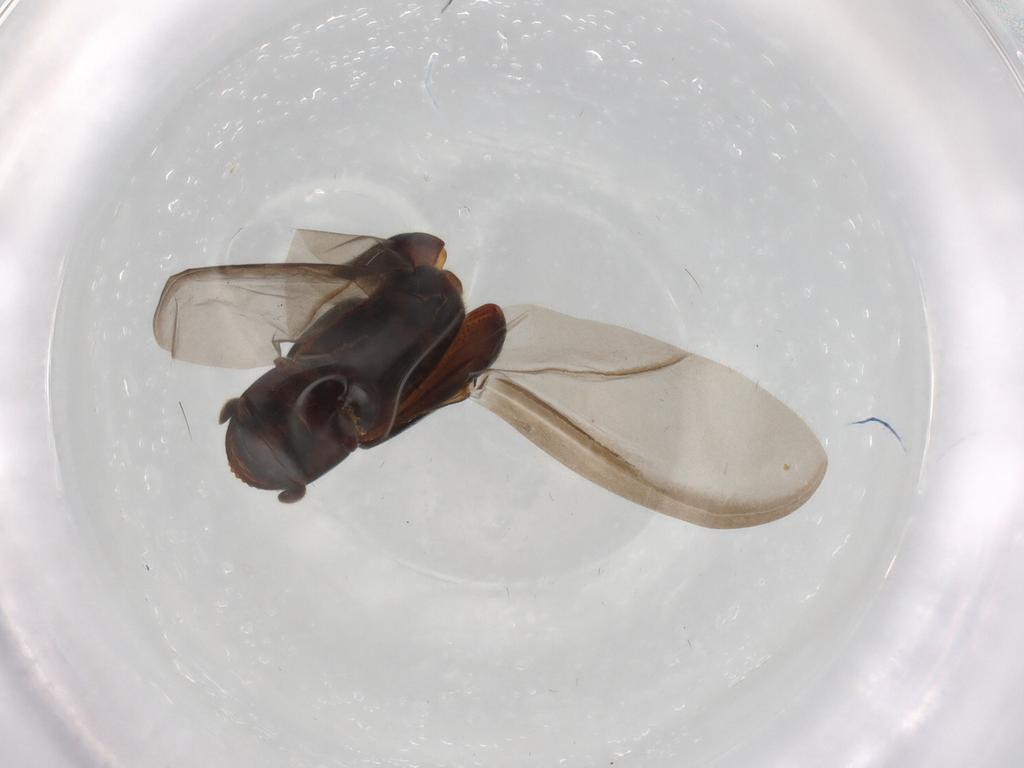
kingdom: Animalia
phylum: Arthropoda
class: Insecta
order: Coleoptera
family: Curculionidae
